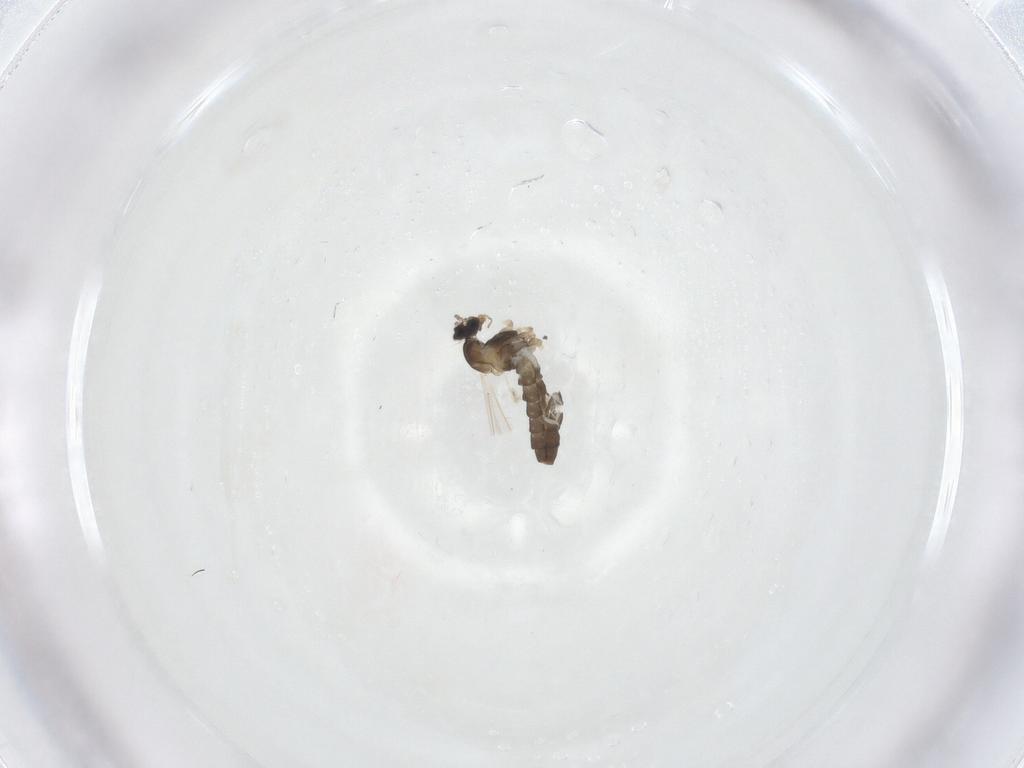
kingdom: Animalia
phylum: Arthropoda
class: Insecta
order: Diptera
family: Cecidomyiidae
